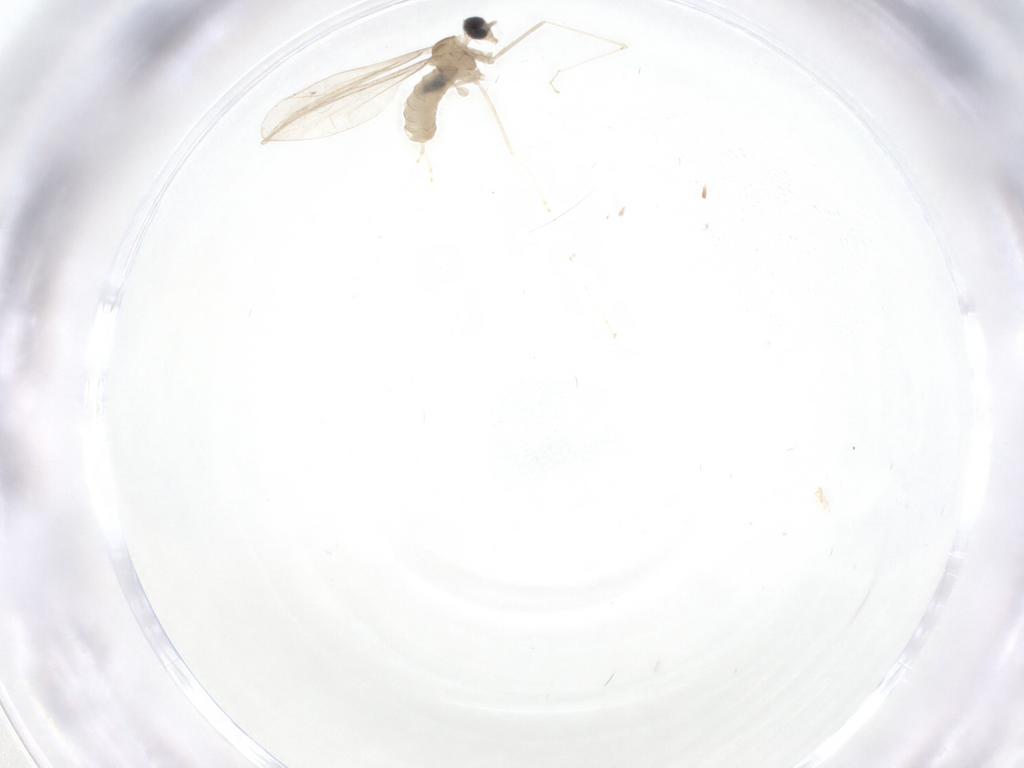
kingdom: Animalia
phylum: Arthropoda
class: Insecta
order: Diptera
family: Cecidomyiidae
